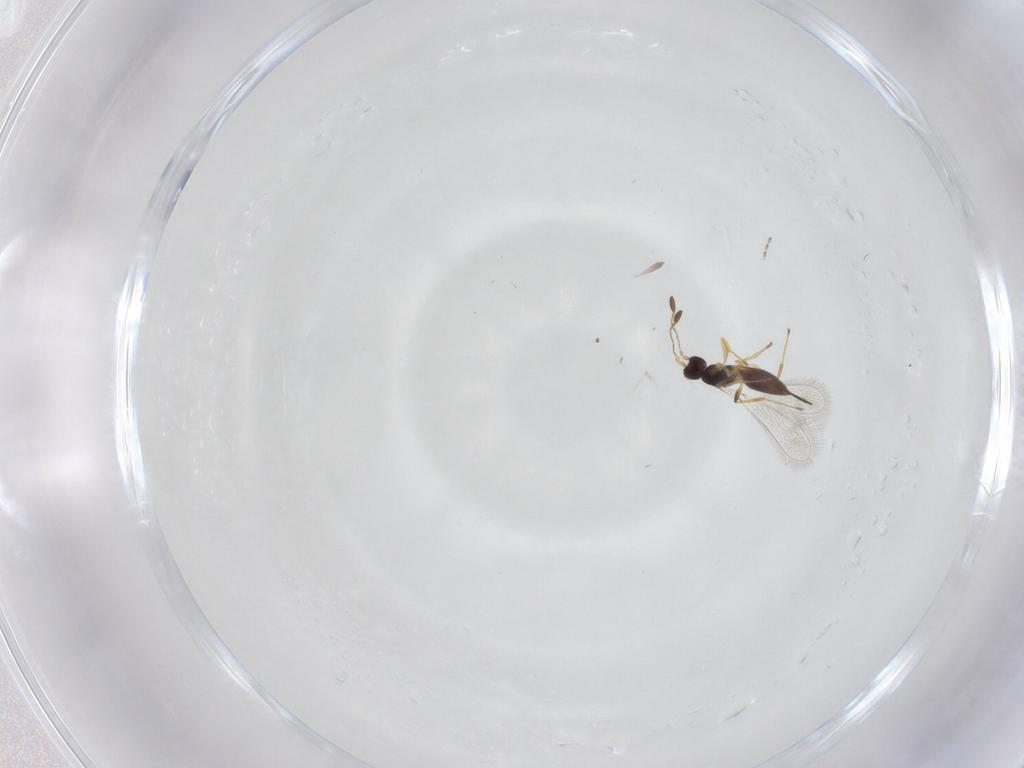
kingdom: Animalia
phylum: Arthropoda
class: Insecta
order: Hymenoptera
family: Mymaridae
